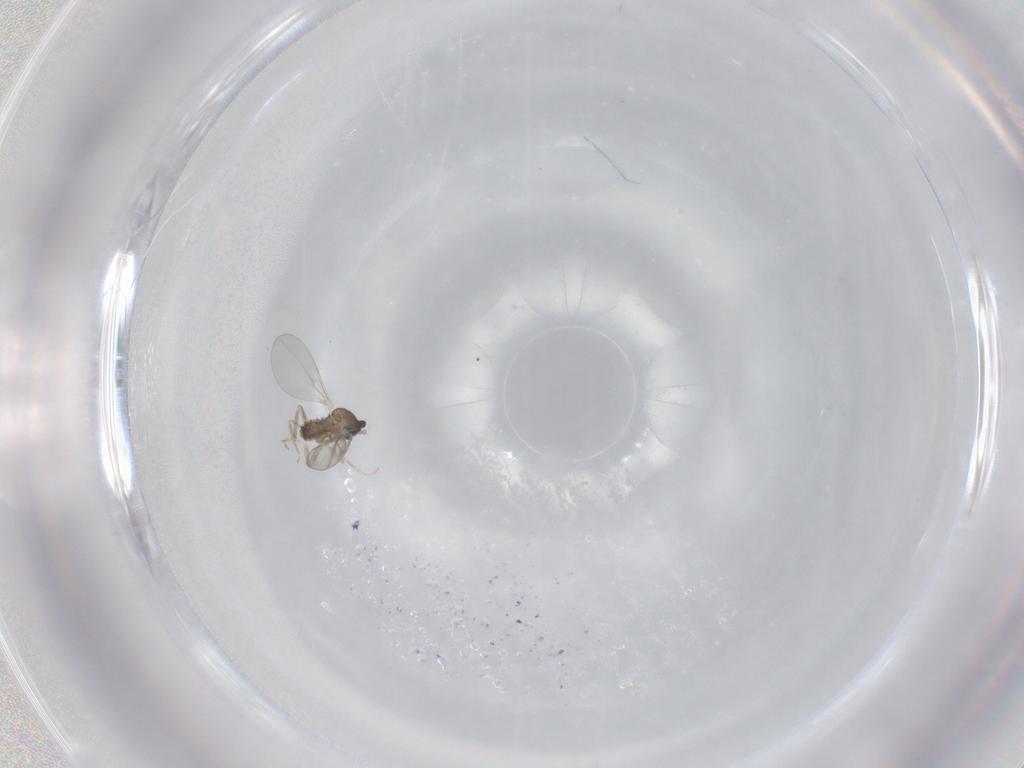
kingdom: Animalia
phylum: Arthropoda
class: Insecta
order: Diptera
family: Cecidomyiidae
